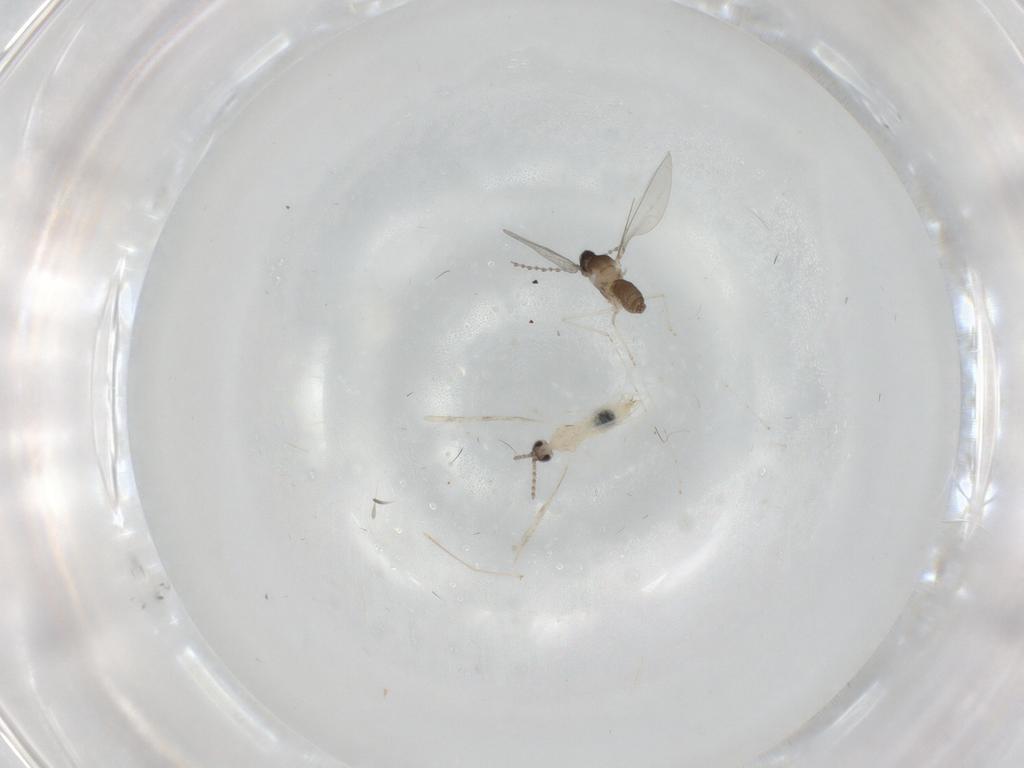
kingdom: Animalia
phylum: Arthropoda
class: Insecta
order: Diptera
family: Cecidomyiidae
